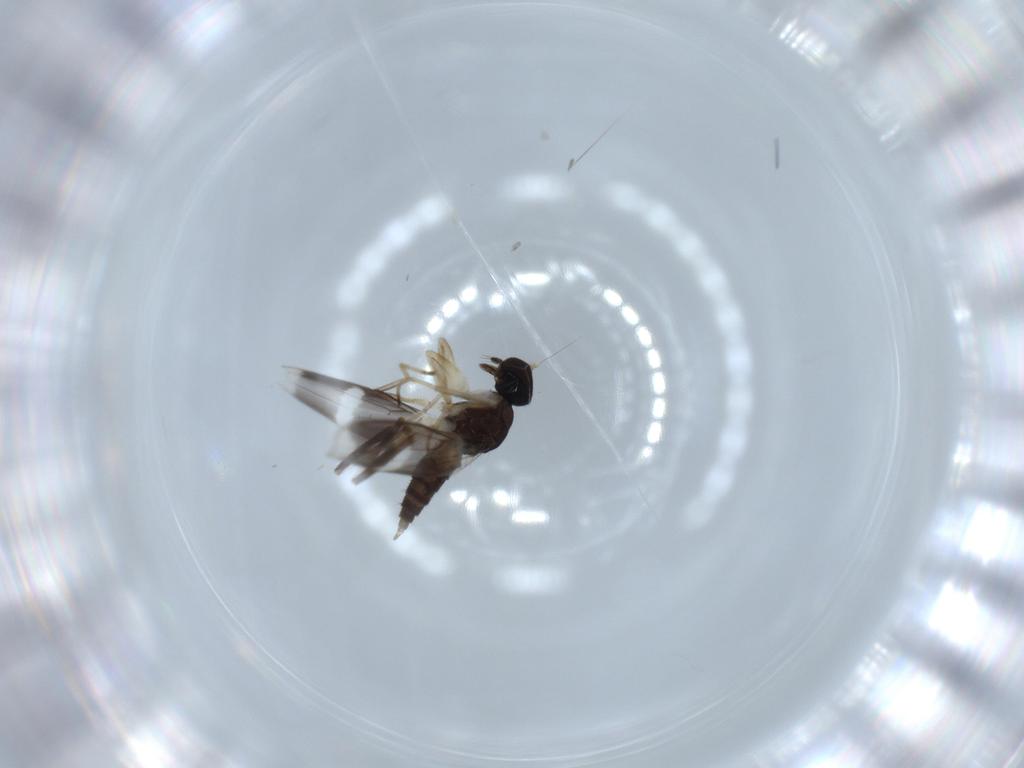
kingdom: Animalia
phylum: Arthropoda
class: Insecta
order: Diptera
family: Hybotidae
